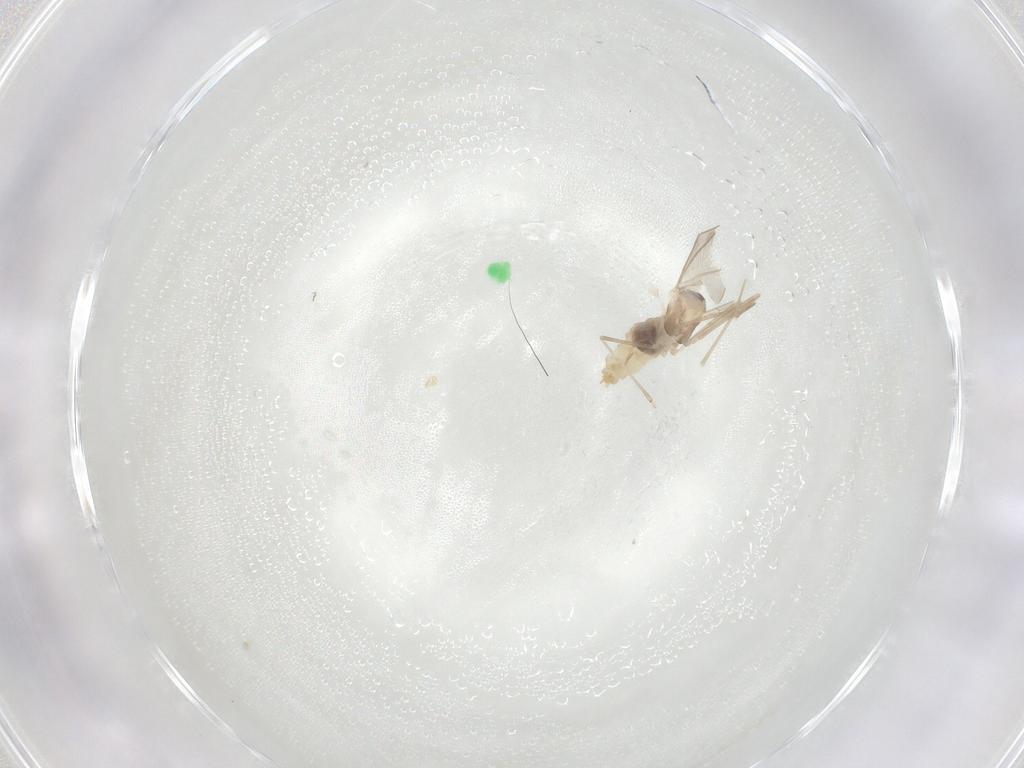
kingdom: Animalia
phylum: Arthropoda
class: Insecta
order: Diptera
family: Cecidomyiidae
